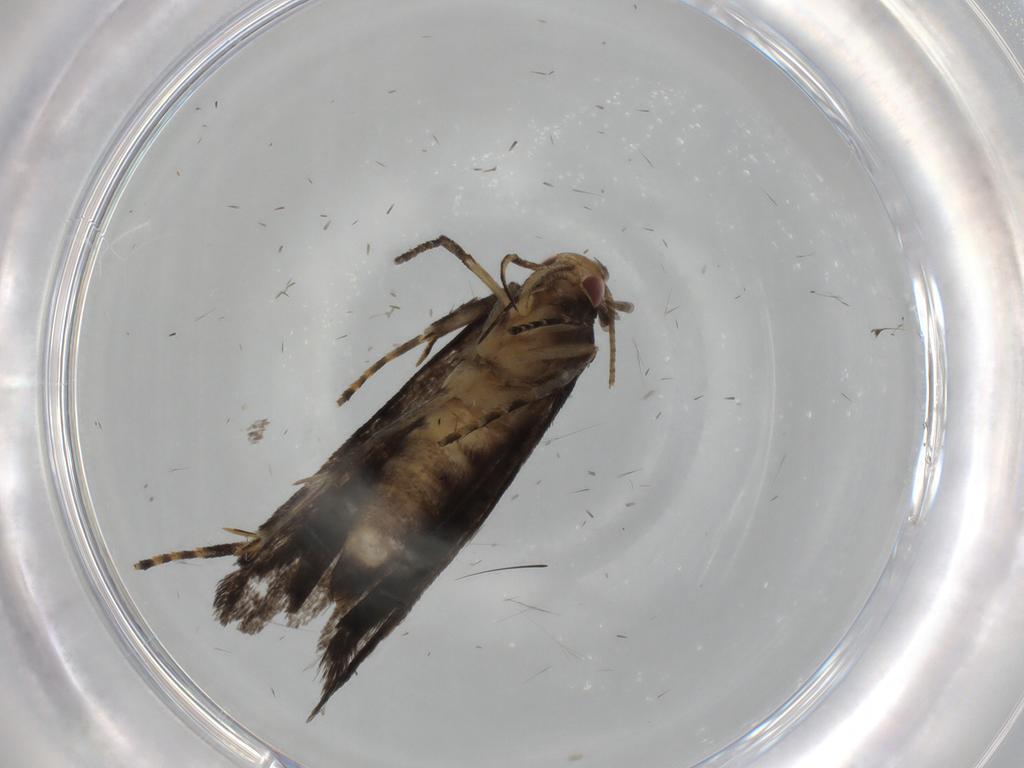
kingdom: Animalia
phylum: Arthropoda
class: Insecta
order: Lepidoptera
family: Gelechiidae
